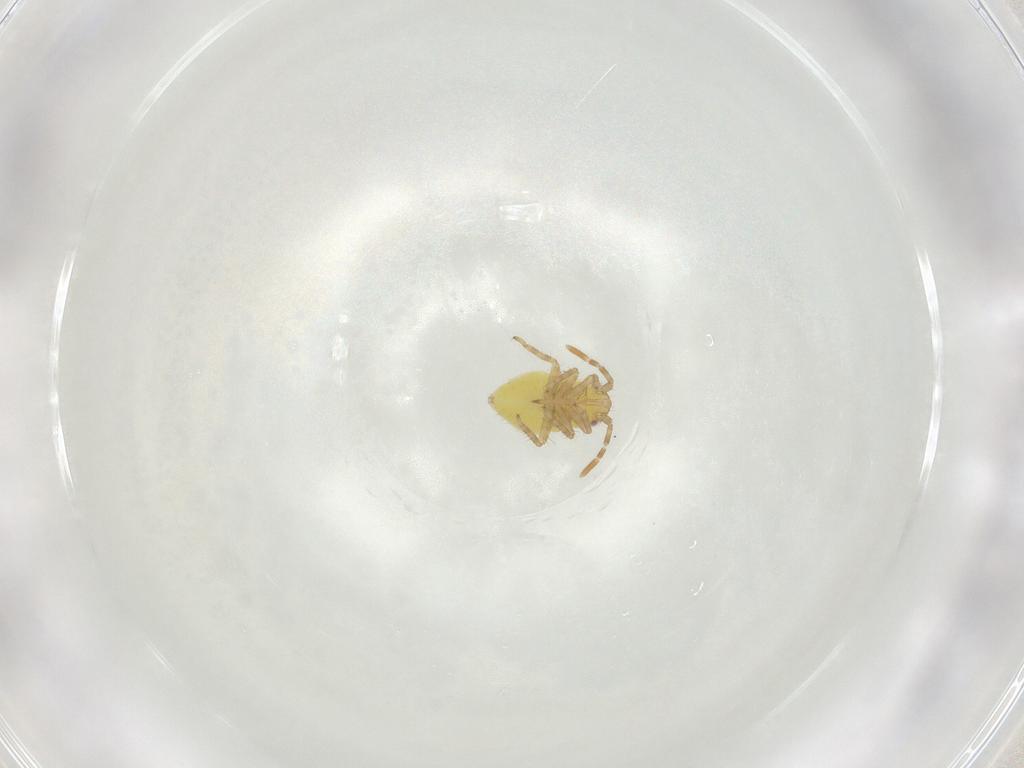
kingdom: Animalia
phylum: Arthropoda
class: Insecta
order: Hemiptera
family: Miridae
